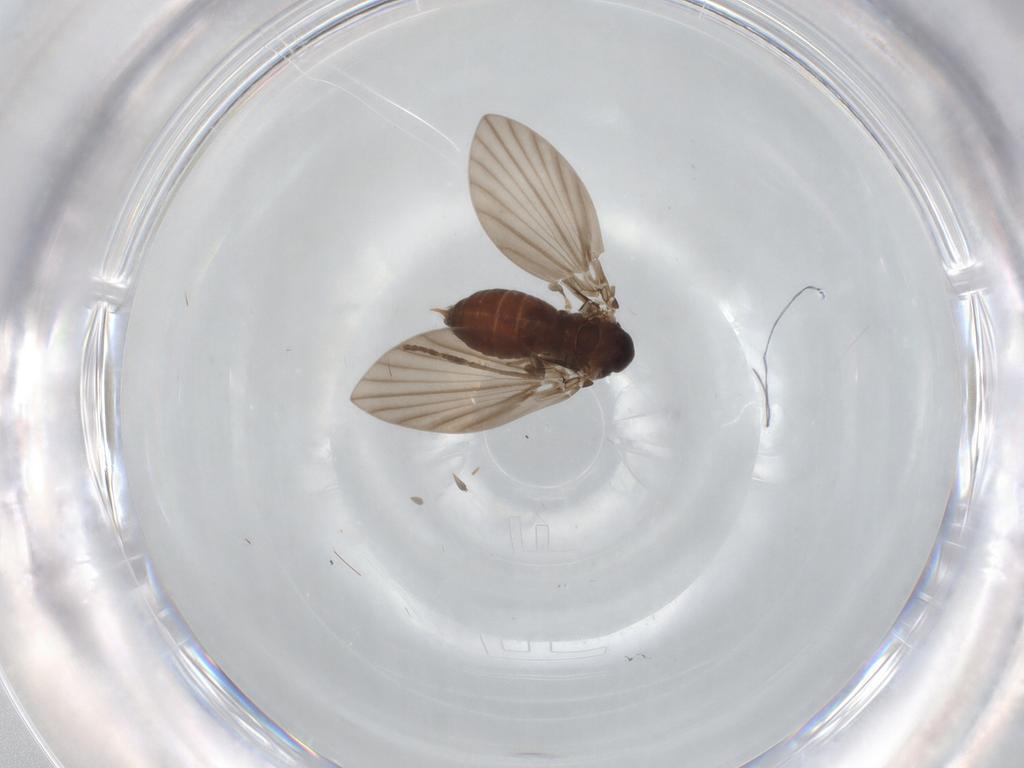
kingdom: Animalia
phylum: Arthropoda
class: Insecta
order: Diptera
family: Psychodidae
